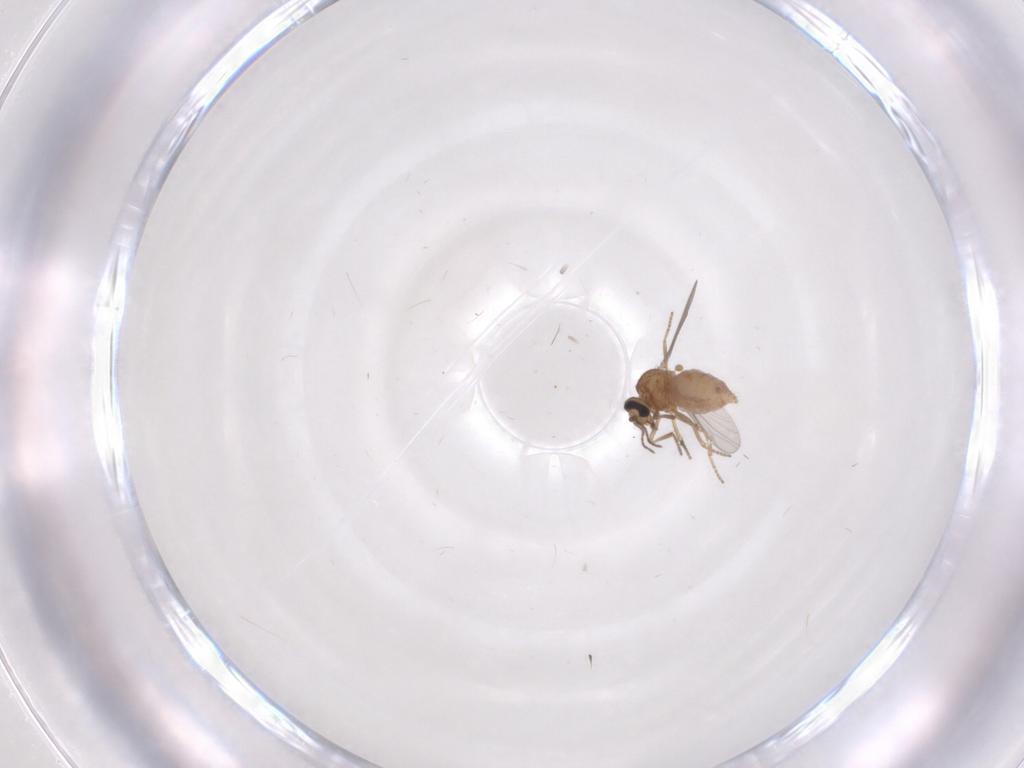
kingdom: Animalia
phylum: Arthropoda
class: Insecta
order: Diptera
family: Ceratopogonidae
